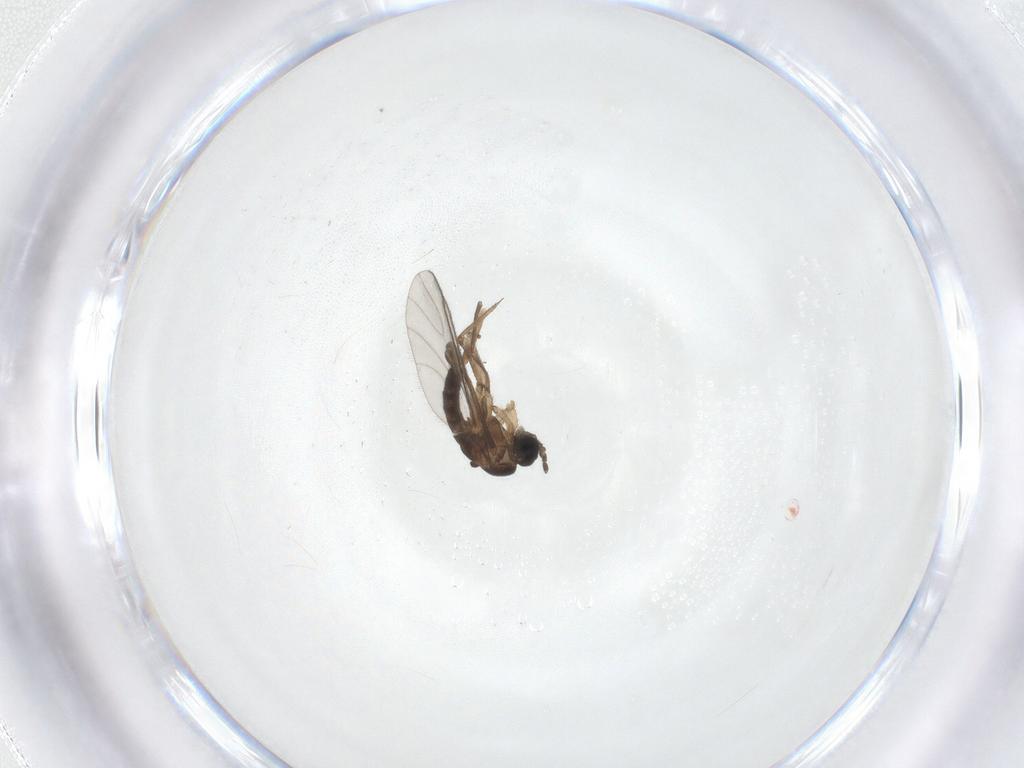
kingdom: Animalia
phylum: Arthropoda
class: Insecta
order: Diptera
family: Sciaridae
